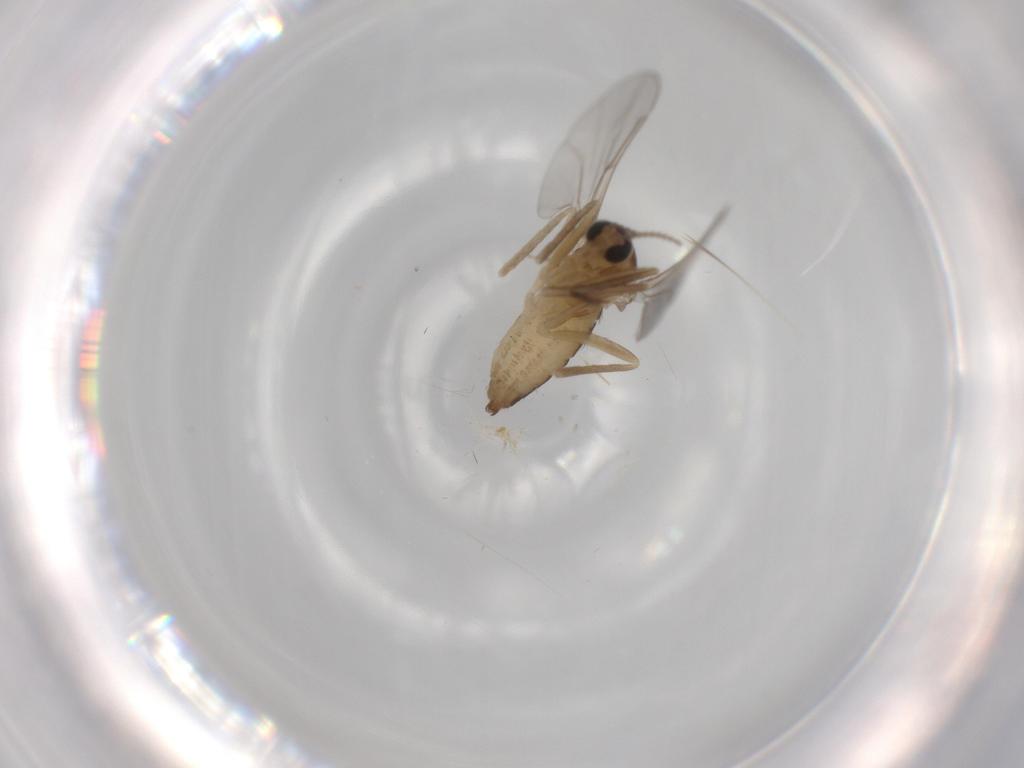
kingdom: Animalia
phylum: Arthropoda
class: Insecta
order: Diptera
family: Cecidomyiidae
